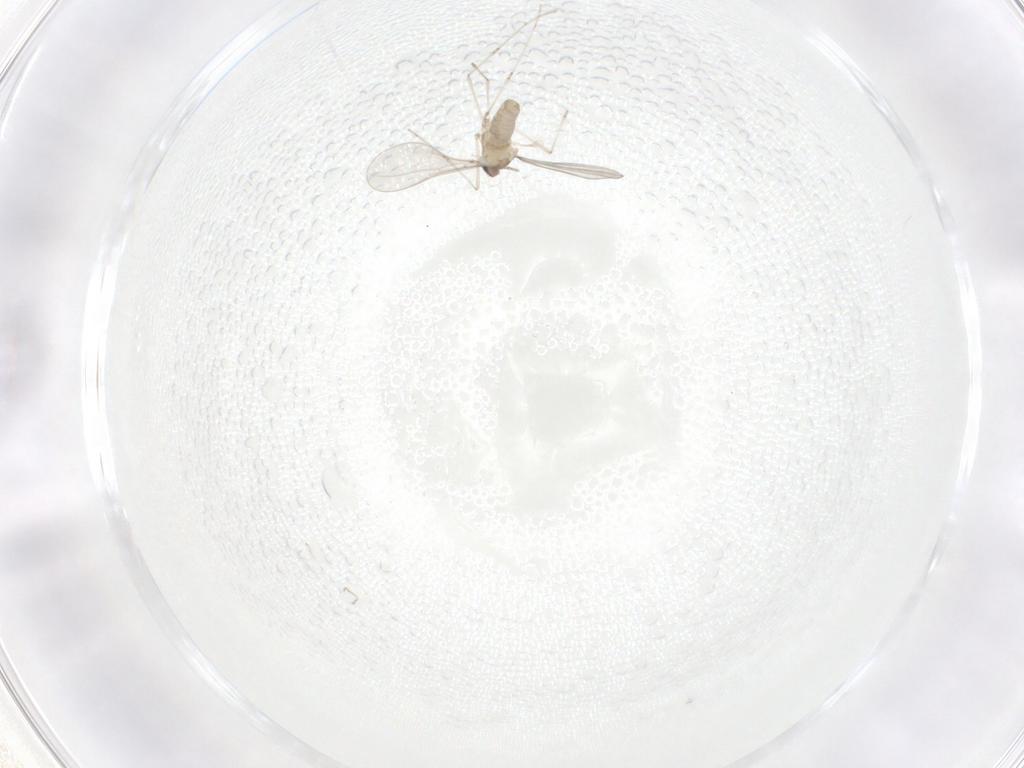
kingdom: Animalia
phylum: Arthropoda
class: Insecta
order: Diptera
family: Cecidomyiidae
